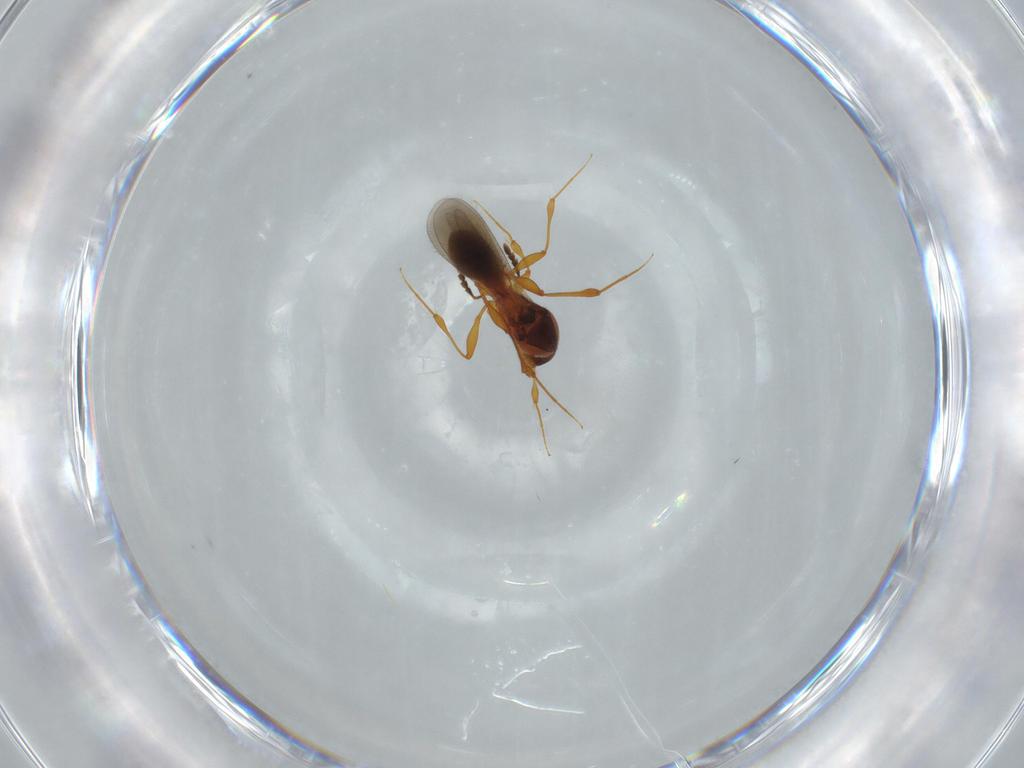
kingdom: Animalia
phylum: Arthropoda
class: Insecta
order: Hymenoptera
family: Platygastridae
